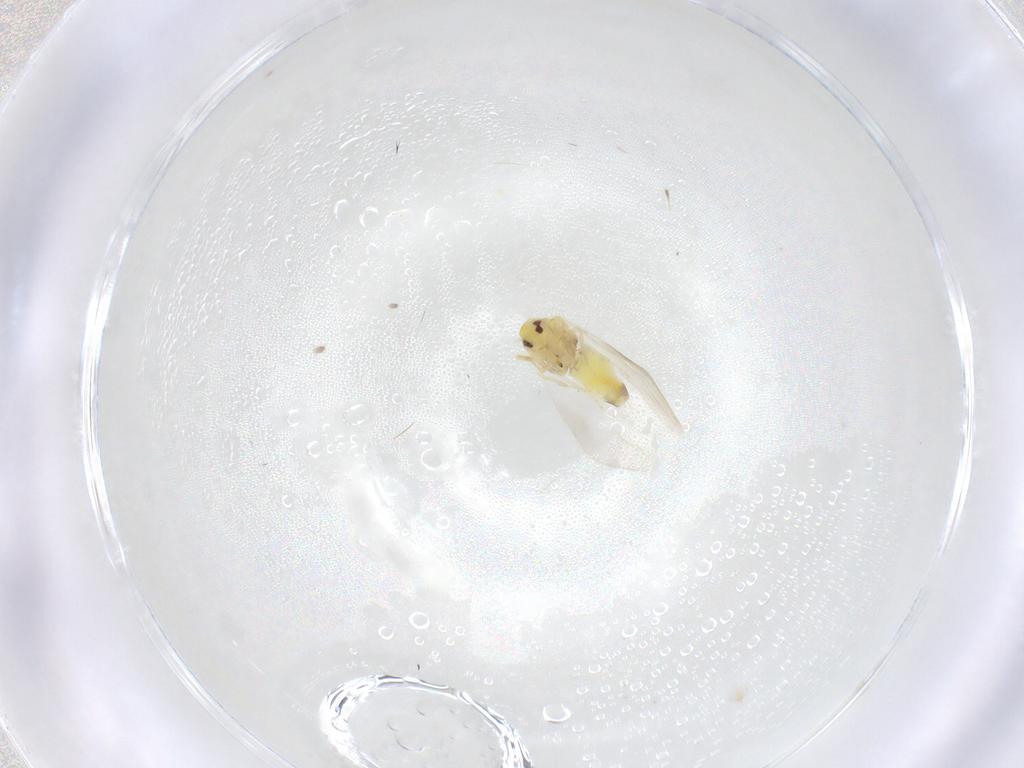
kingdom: Animalia
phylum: Arthropoda
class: Insecta
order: Hemiptera
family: Aleyrodidae
